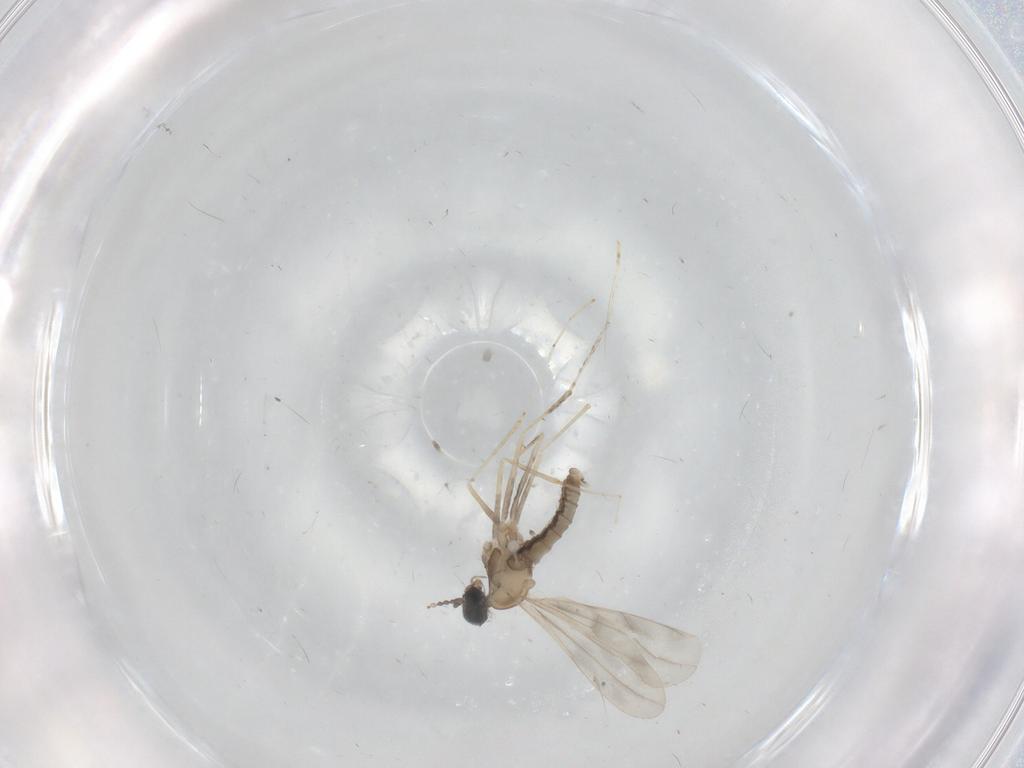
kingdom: Animalia
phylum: Arthropoda
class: Insecta
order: Diptera
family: Cecidomyiidae
